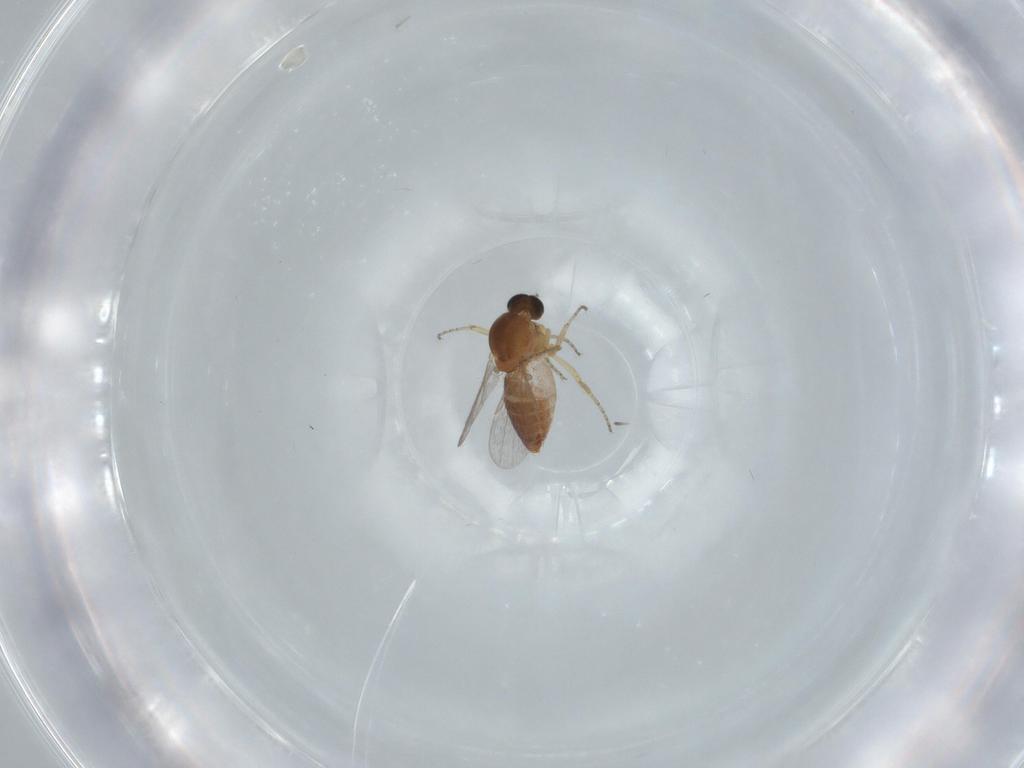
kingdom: Animalia
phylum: Arthropoda
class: Insecta
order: Diptera
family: Ceratopogonidae
